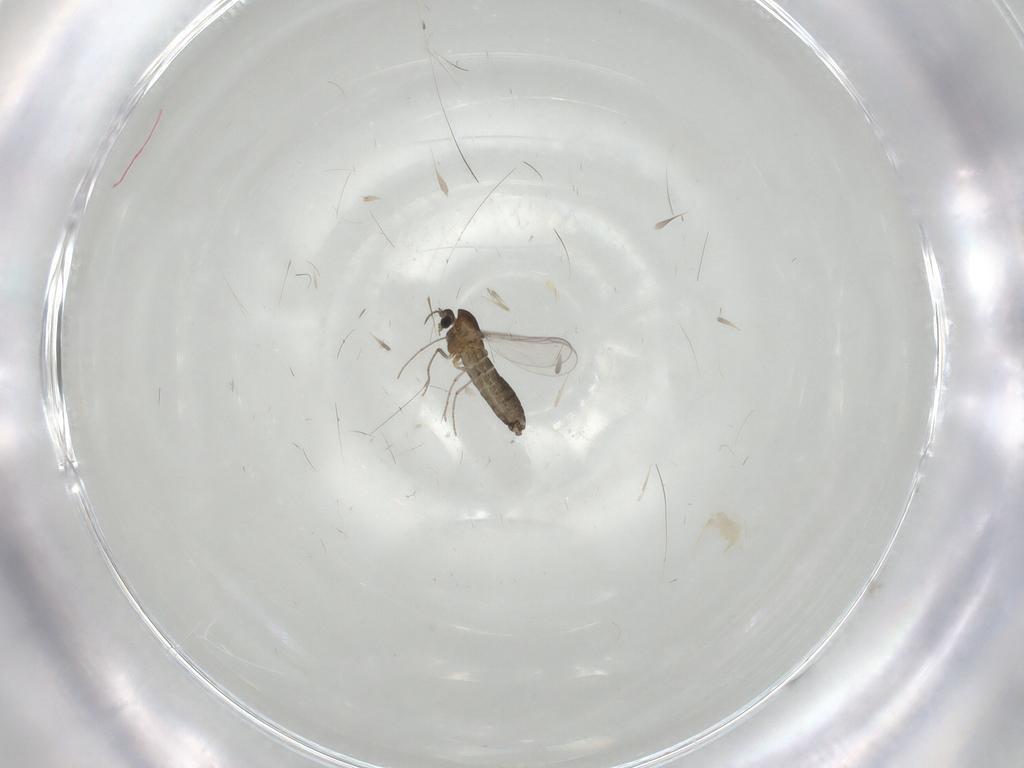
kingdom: Animalia
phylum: Arthropoda
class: Insecta
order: Diptera
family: Chironomidae
